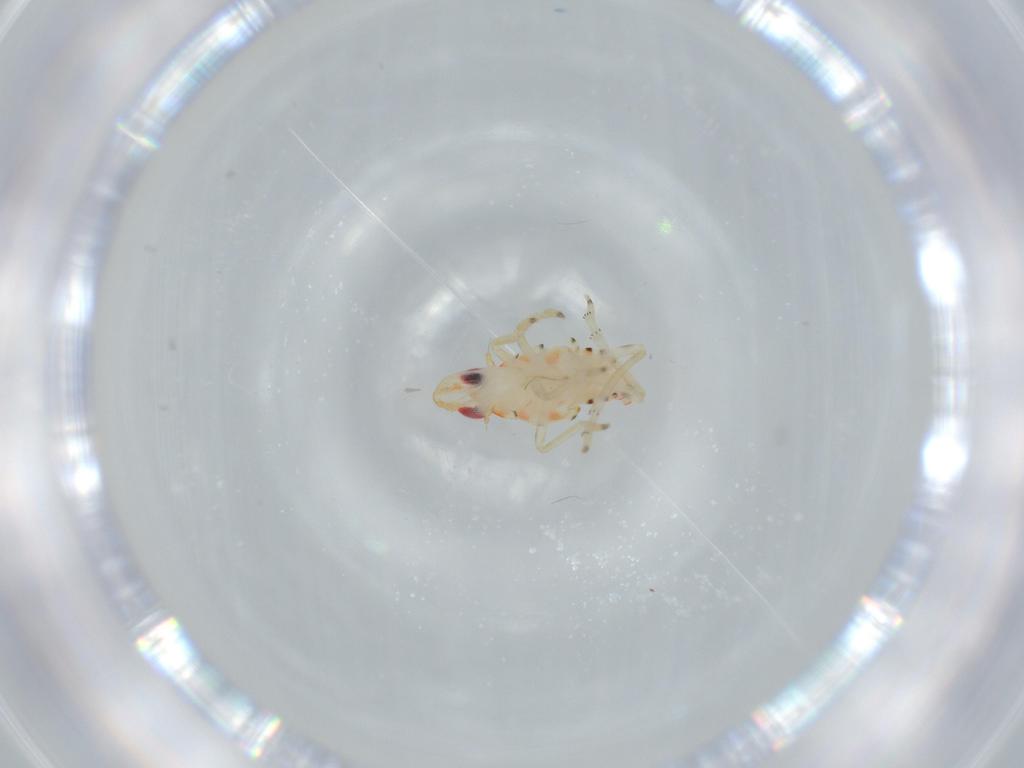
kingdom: Animalia
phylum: Arthropoda
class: Insecta
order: Hemiptera
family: Tropiduchidae
